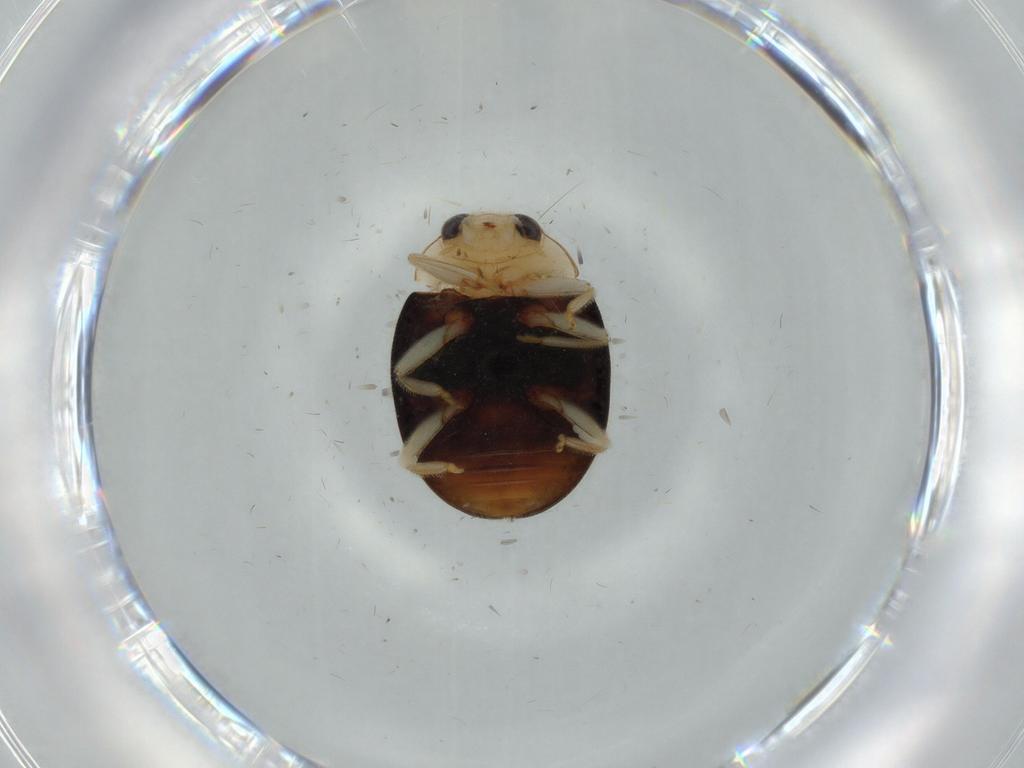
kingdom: Animalia
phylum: Arthropoda
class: Insecta
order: Coleoptera
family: Coccinellidae
